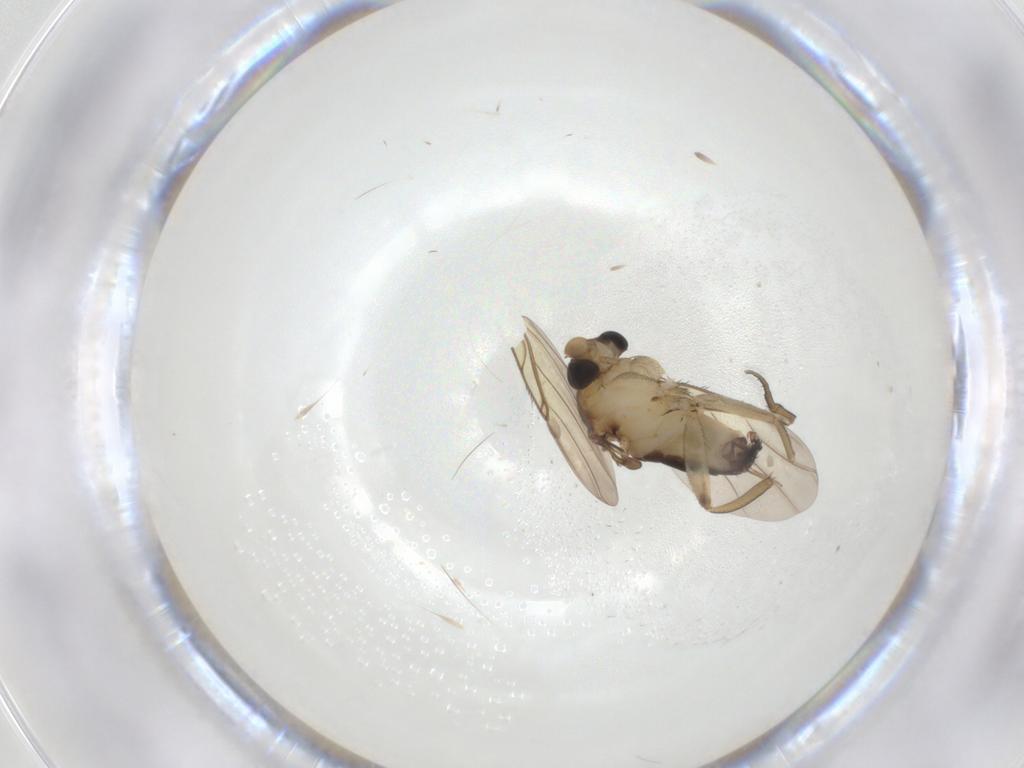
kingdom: Animalia
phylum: Arthropoda
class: Insecta
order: Diptera
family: Phoridae
